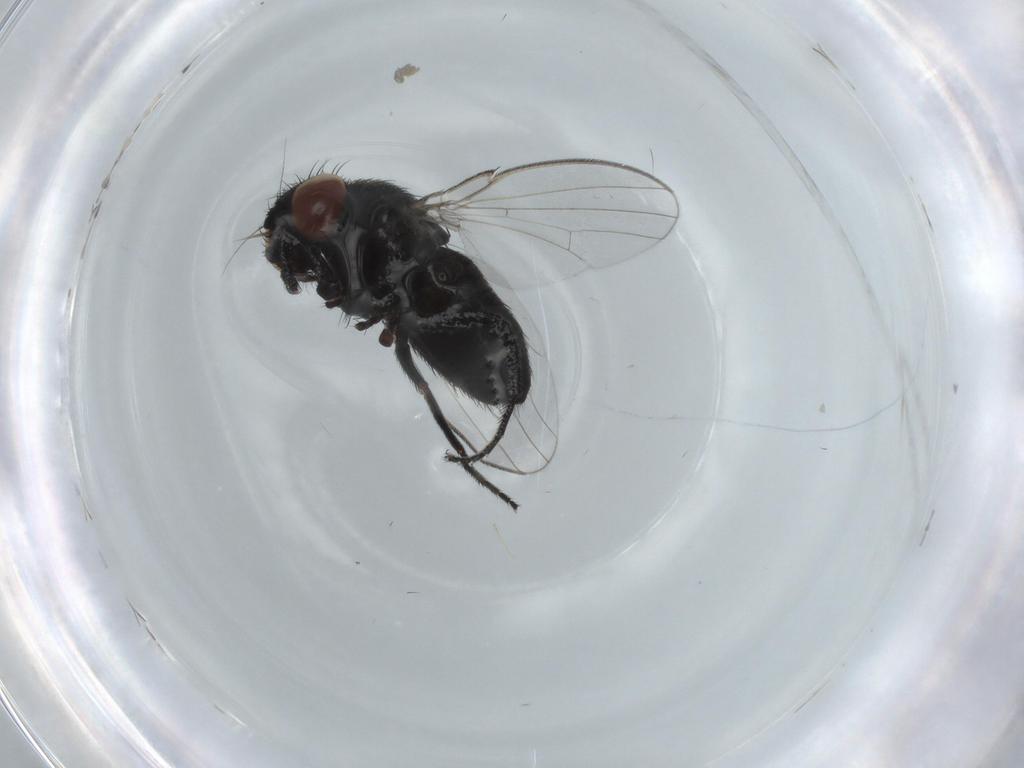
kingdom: Animalia
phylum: Arthropoda
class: Insecta
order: Diptera
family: Milichiidae
